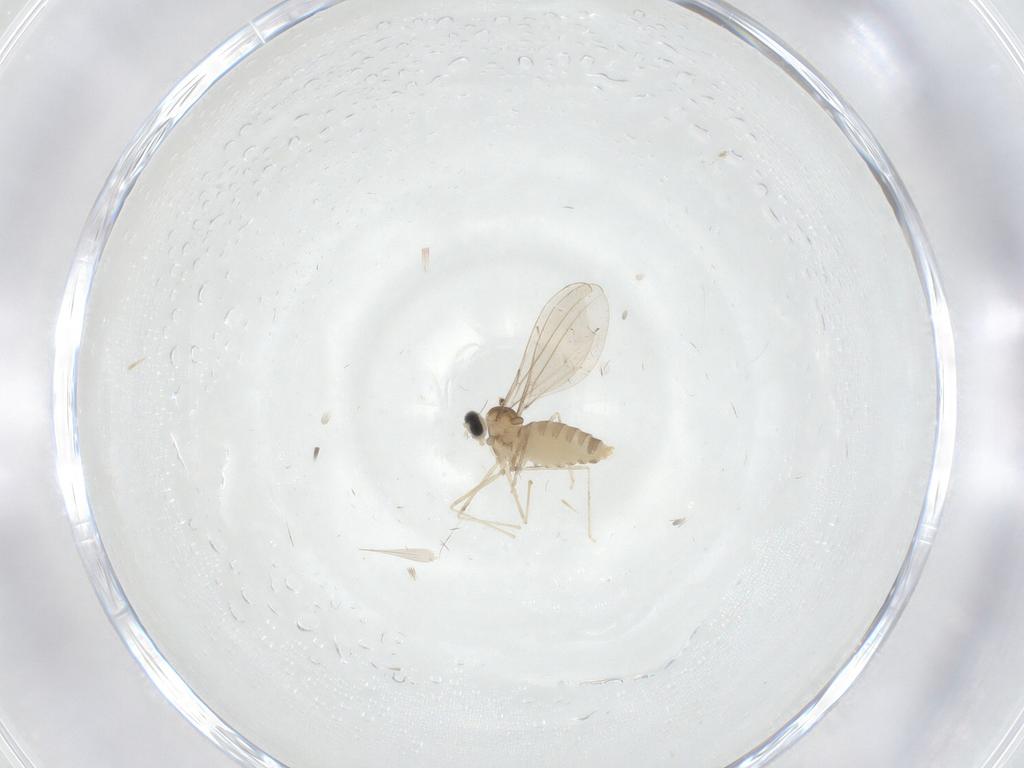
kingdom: Animalia
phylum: Arthropoda
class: Insecta
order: Diptera
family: Cecidomyiidae
